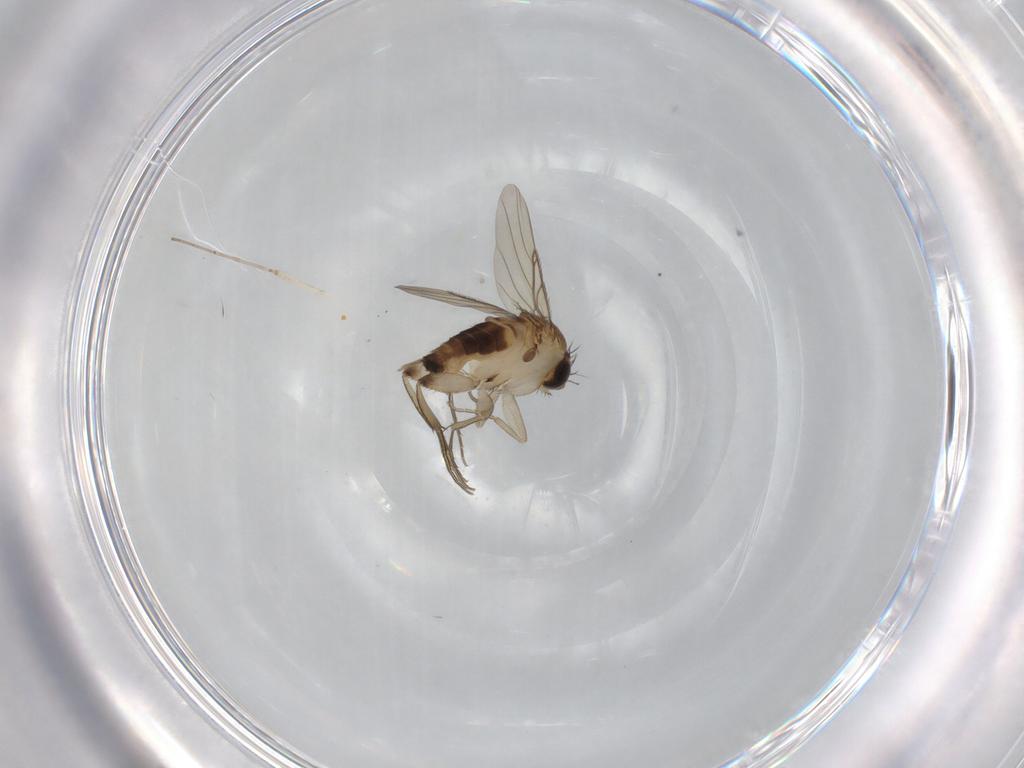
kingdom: Animalia
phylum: Arthropoda
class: Insecta
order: Diptera
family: Phoridae
